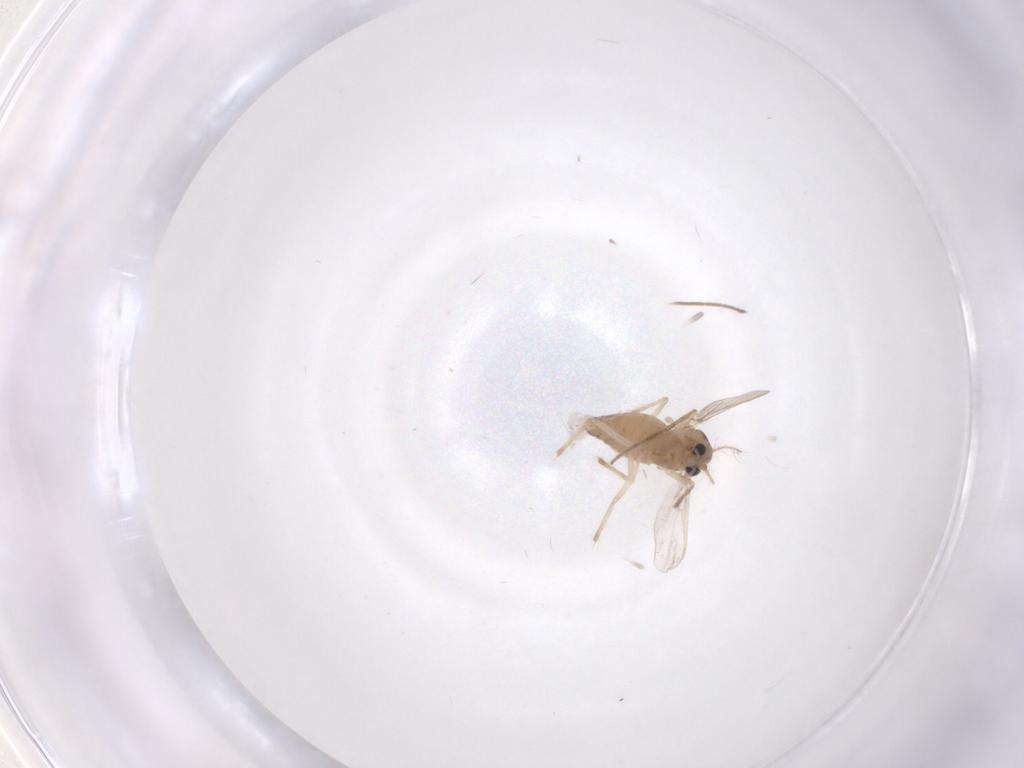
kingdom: Animalia
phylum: Arthropoda
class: Insecta
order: Diptera
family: Chironomidae
